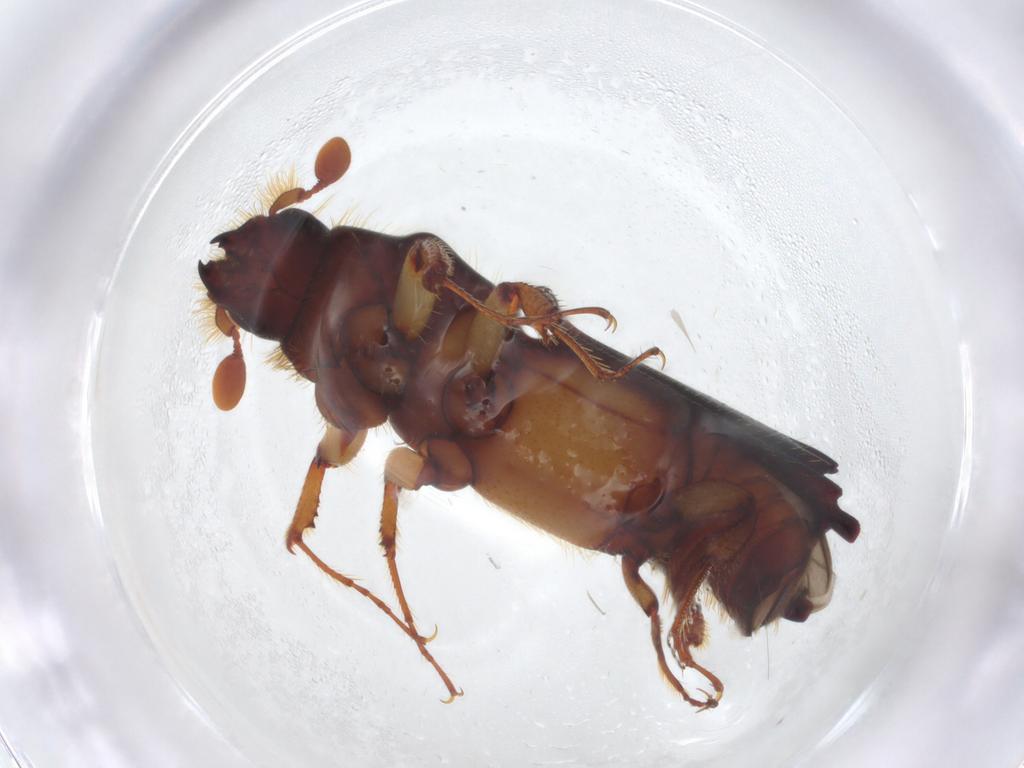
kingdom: Animalia
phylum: Arthropoda
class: Insecta
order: Coleoptera
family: Curculionidae
